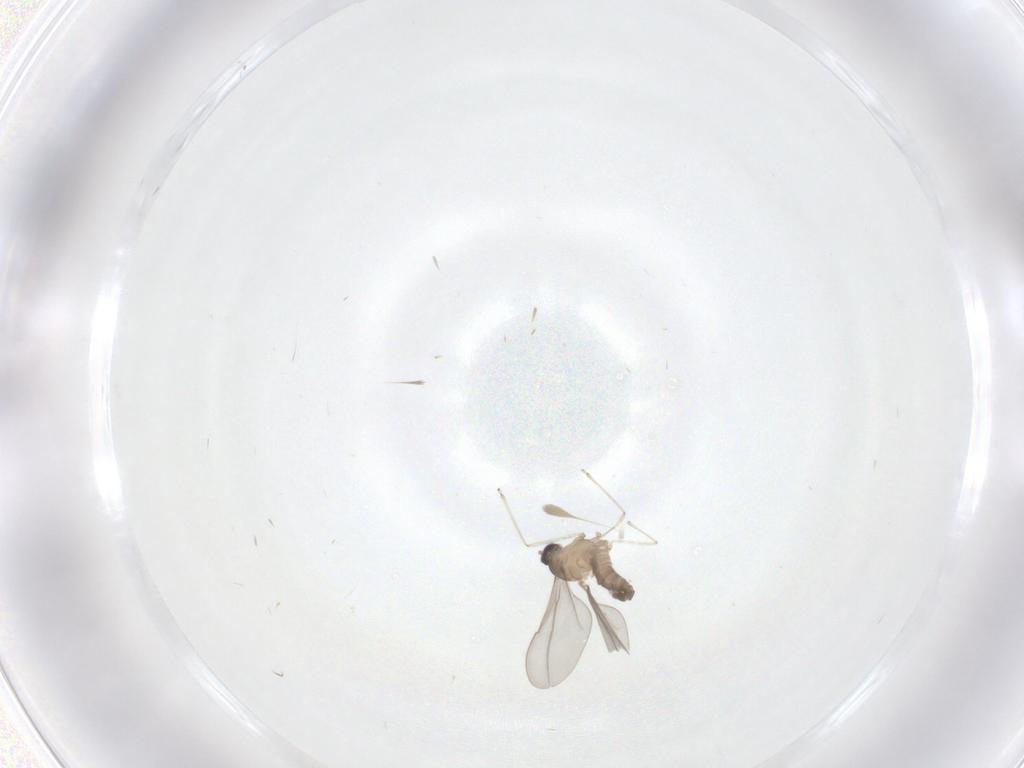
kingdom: Animalia
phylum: Arthropoda
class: Insecta
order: Diptera
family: Cecidomyiidae
